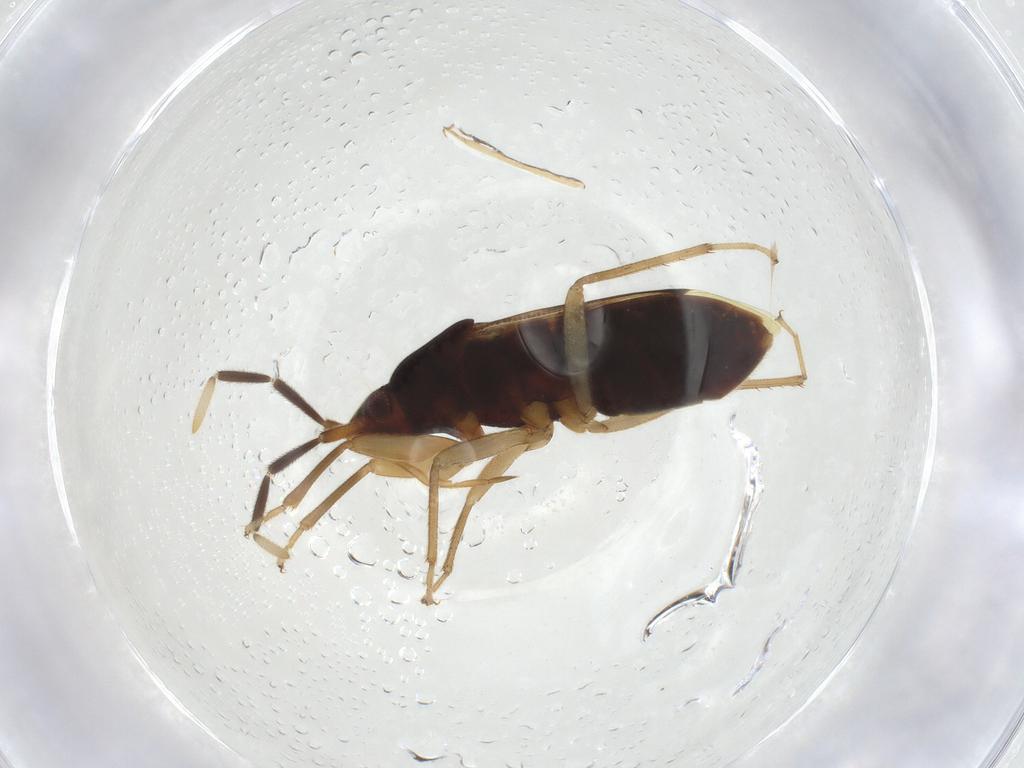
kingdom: Animalia
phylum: Arthropoda
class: Insecta
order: Hemiptera
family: Rhyparochromidae
